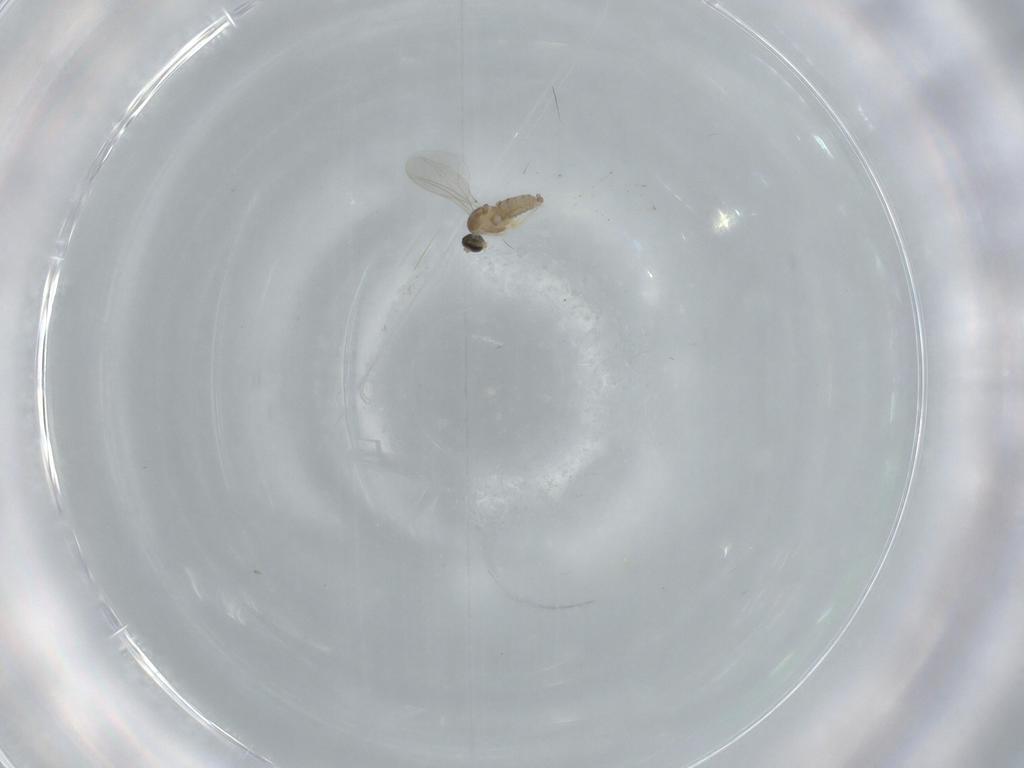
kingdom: Animalia
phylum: Arthropoda
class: Insecta
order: Diptera
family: Cecidomyiidae
